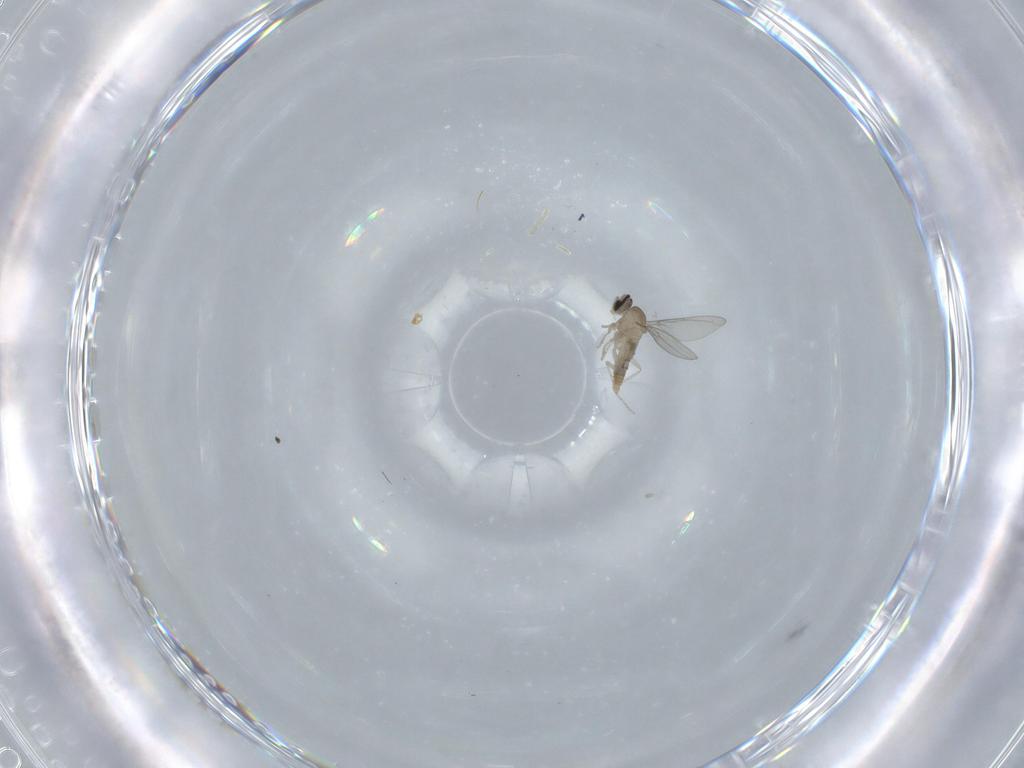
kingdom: Animalia
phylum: Arthropoda
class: Insecta
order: Diptera
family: Cecidomyiidae
